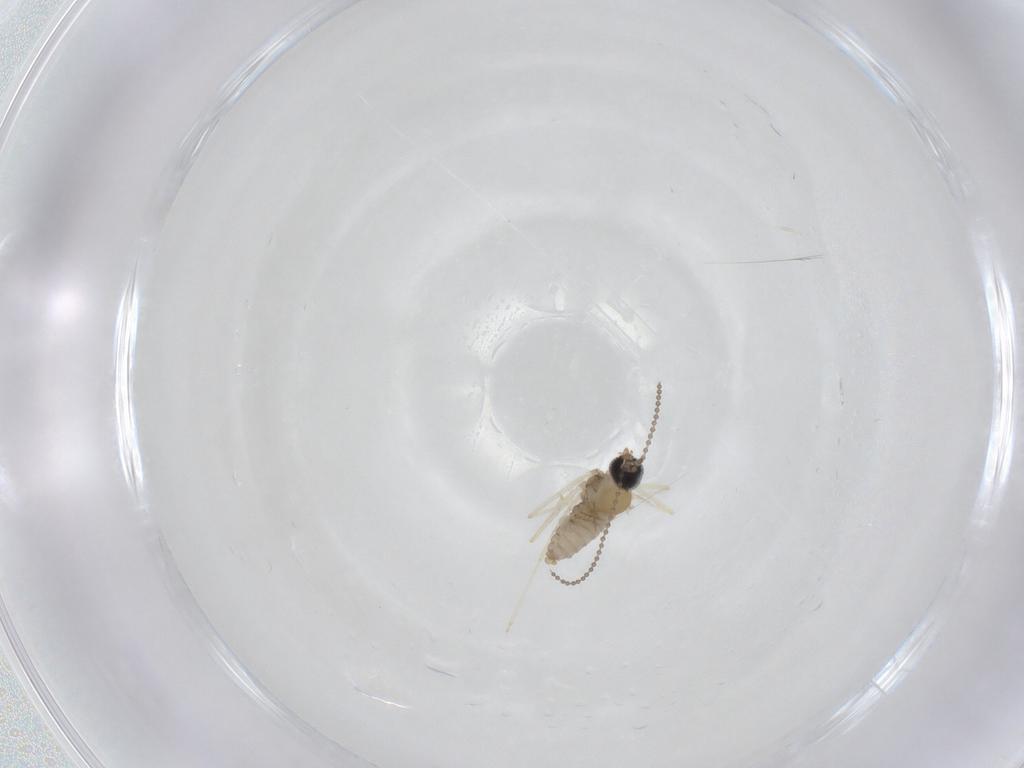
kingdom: Animalia
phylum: Arthropoda
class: Insecta
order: Diptera
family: Cecidomyiidae
